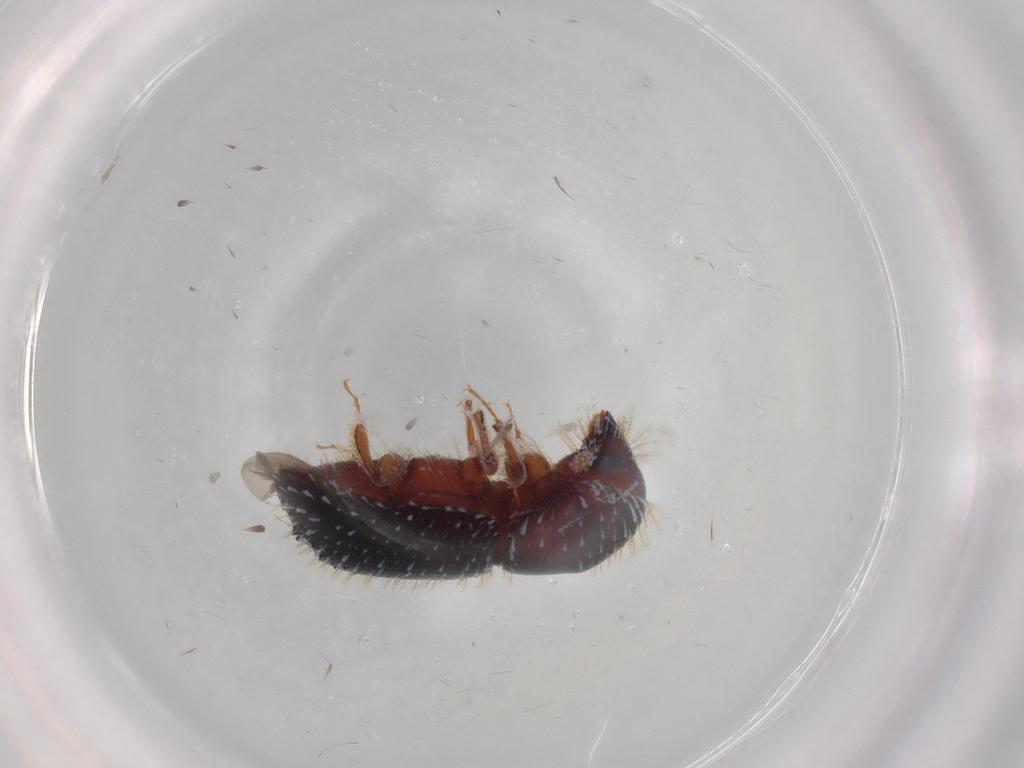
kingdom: Animalia
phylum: Arthropoda
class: Insecta
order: Coleoptera
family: Curculionidae
